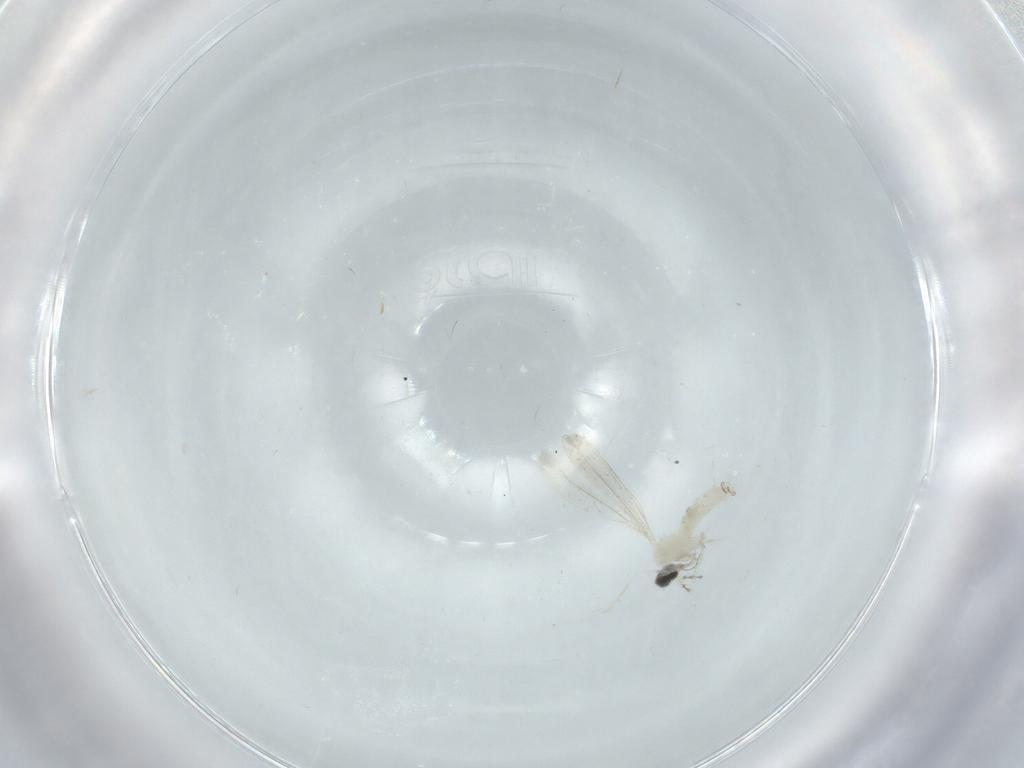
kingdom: Animalia
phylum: Arthropoda
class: Insecta
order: Diptera
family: Cecidomyiidae
